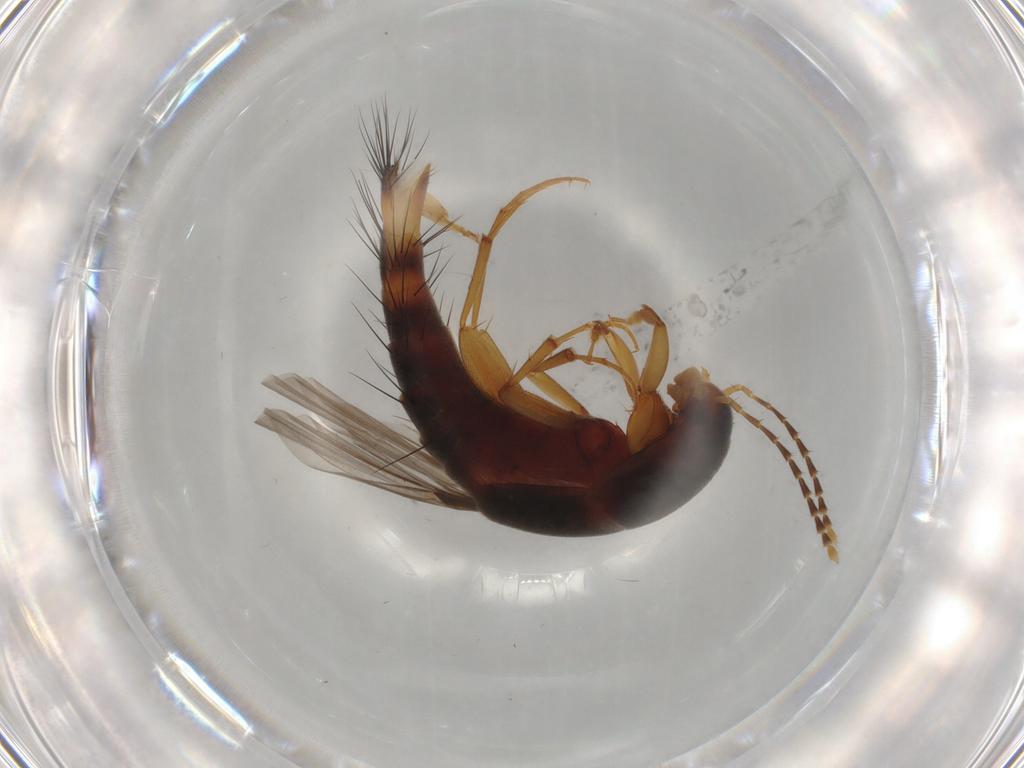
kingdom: Animalia
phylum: Arthropoda
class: Insecta
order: Coleoptera
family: Staphylinidae
